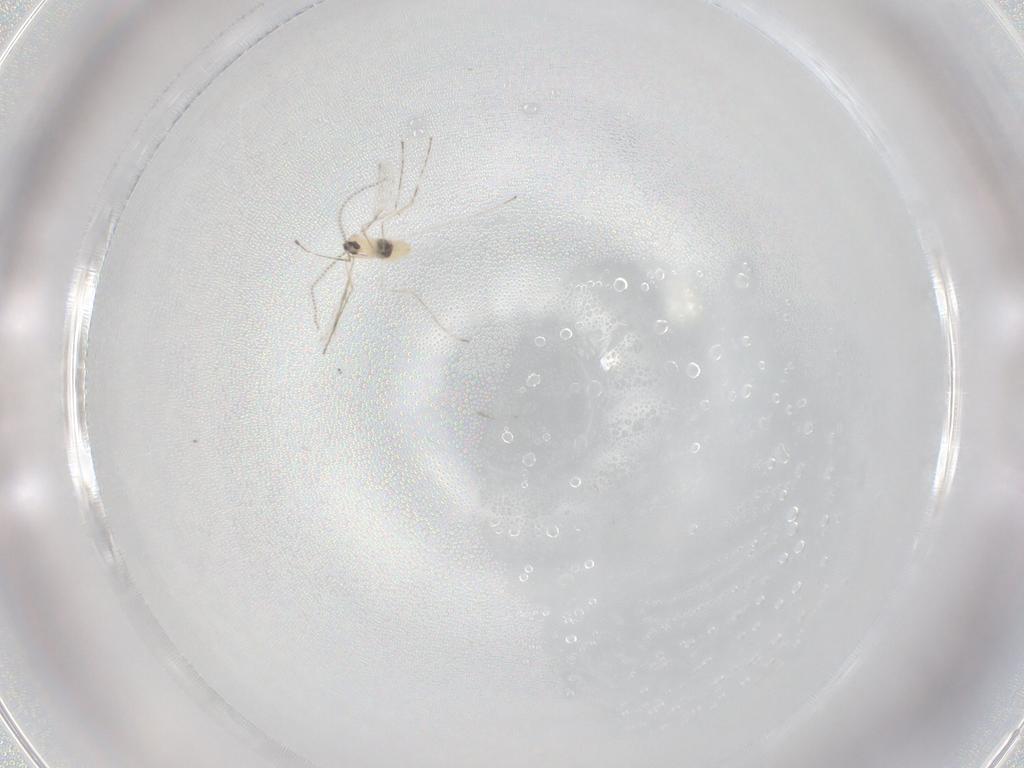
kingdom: Animalia
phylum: Arthropoda
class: Insecta
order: Diptera
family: Cecidomyiidae
